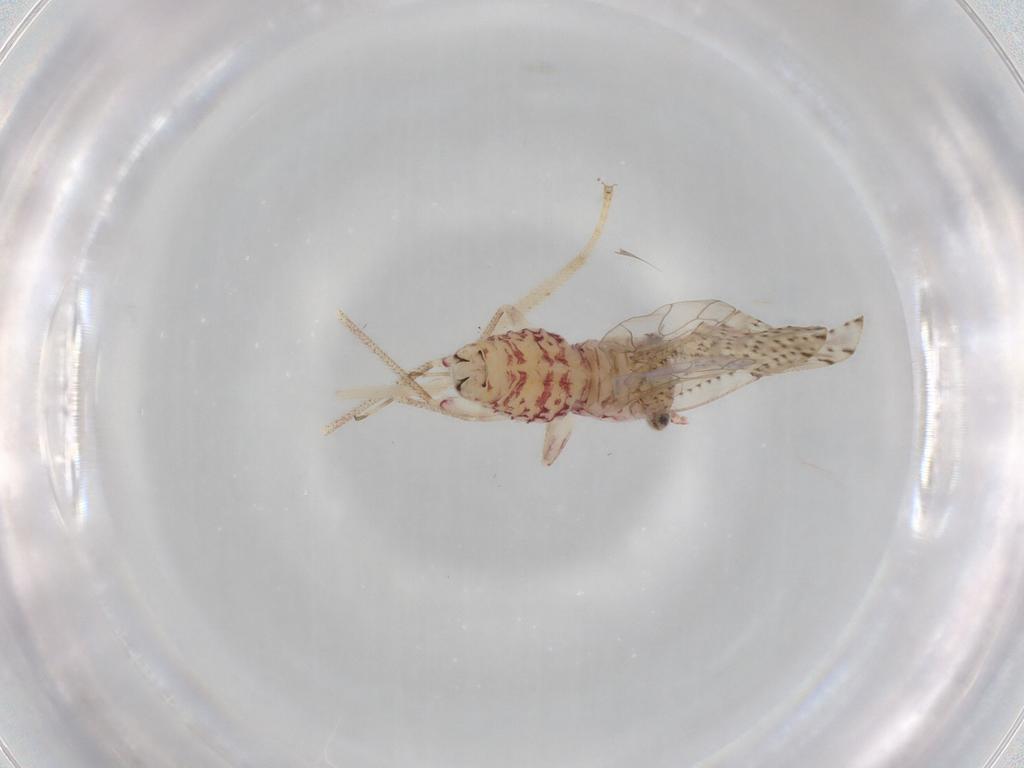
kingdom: Animalia
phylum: Arthropoda
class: Insecta
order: Psocodea
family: Philotarsidae
